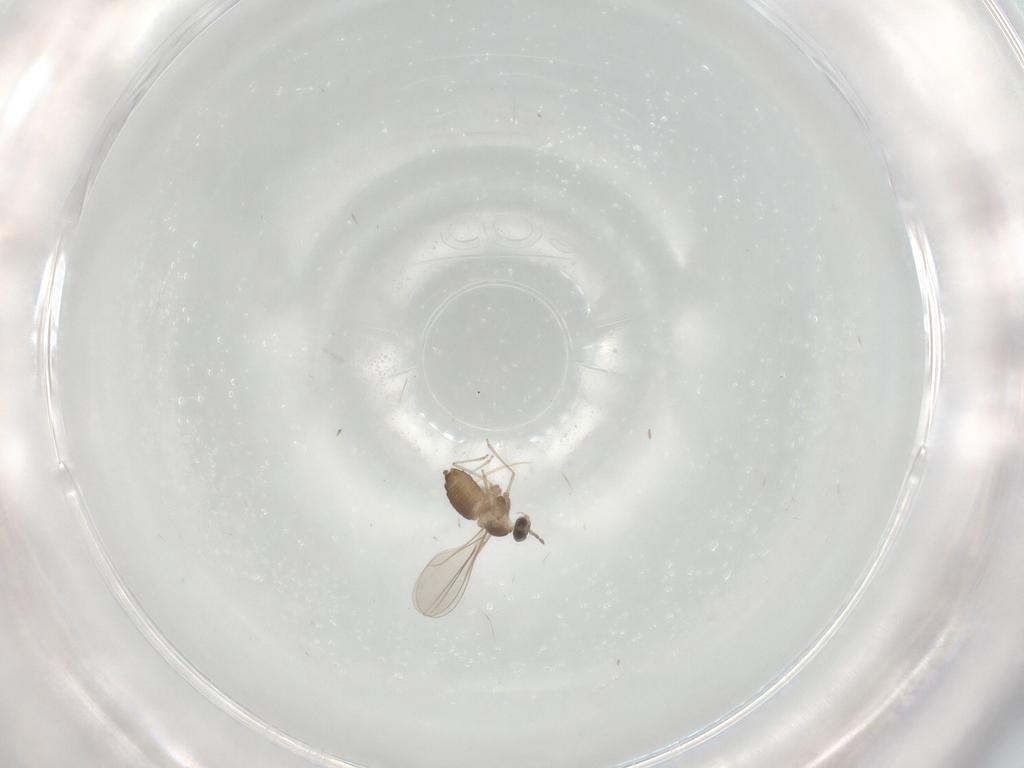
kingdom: Animalia
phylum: Arthropoda
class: Insecta
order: Diptera
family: Cecidomyiidae
